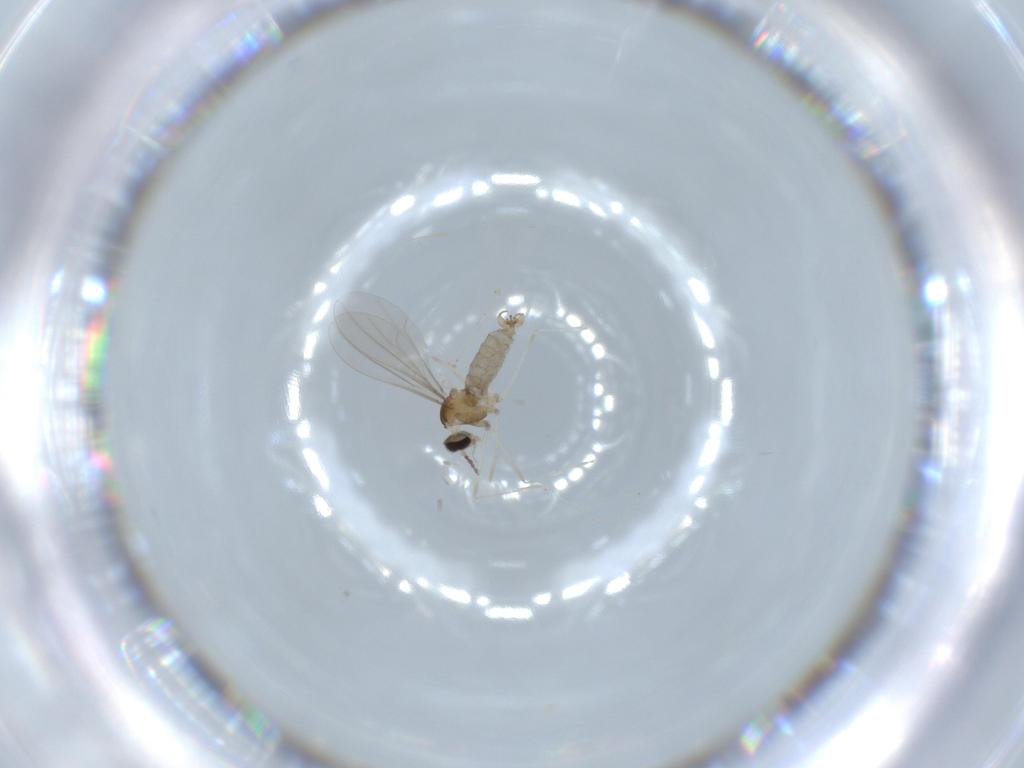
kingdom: Animalia
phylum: Arthropoda
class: Insecta
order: Diptera
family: Cecidomyiidae
